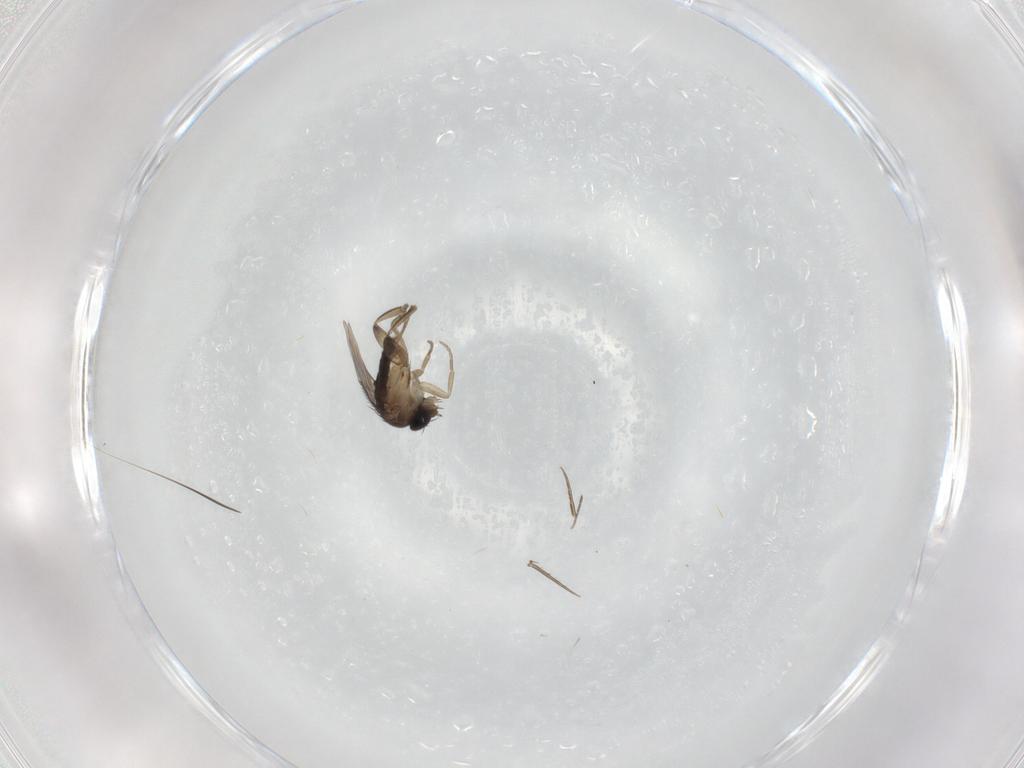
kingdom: Animalia
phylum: Arthropoda
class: Insecta
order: Diptera
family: Phoridae
